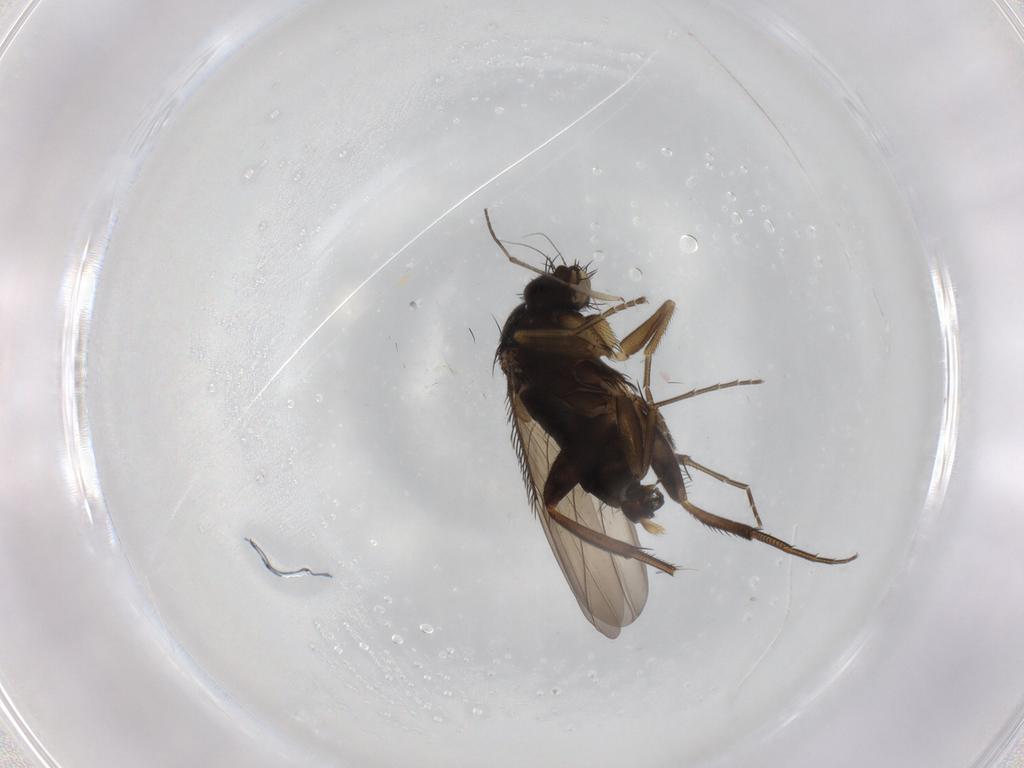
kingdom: Animalia
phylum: Arthropoda
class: Insecta
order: Diptera
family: Phoridae
